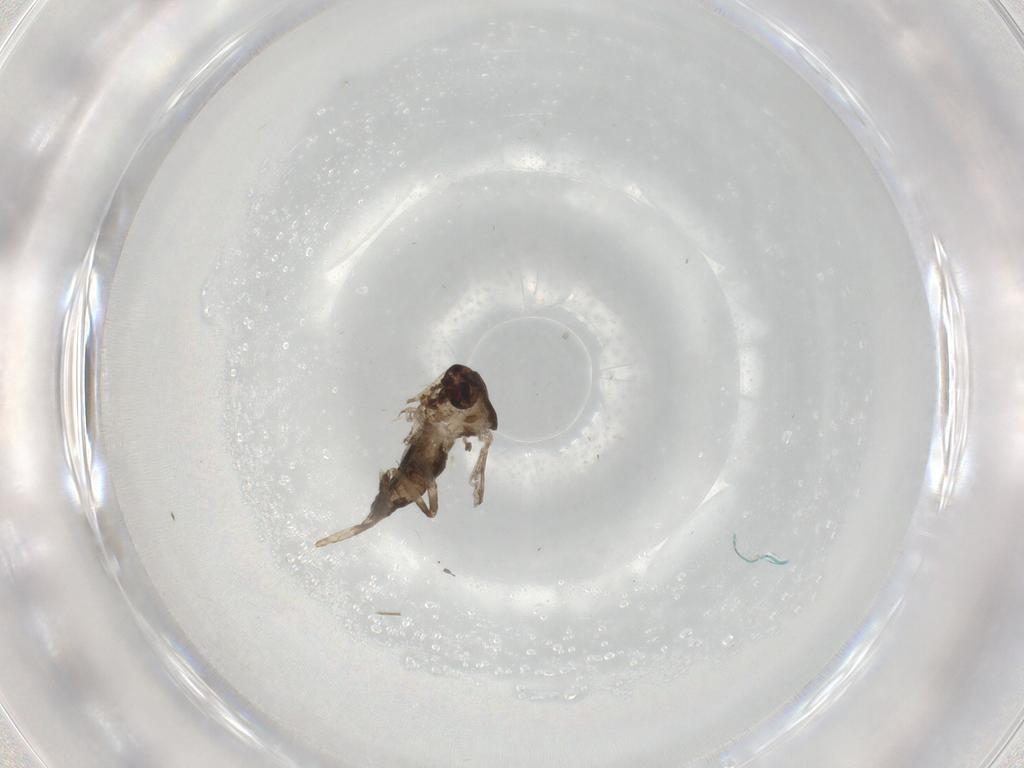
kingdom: Animalia
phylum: Arthropoda
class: Insecta
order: Diptera
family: Ceratopogonidae
